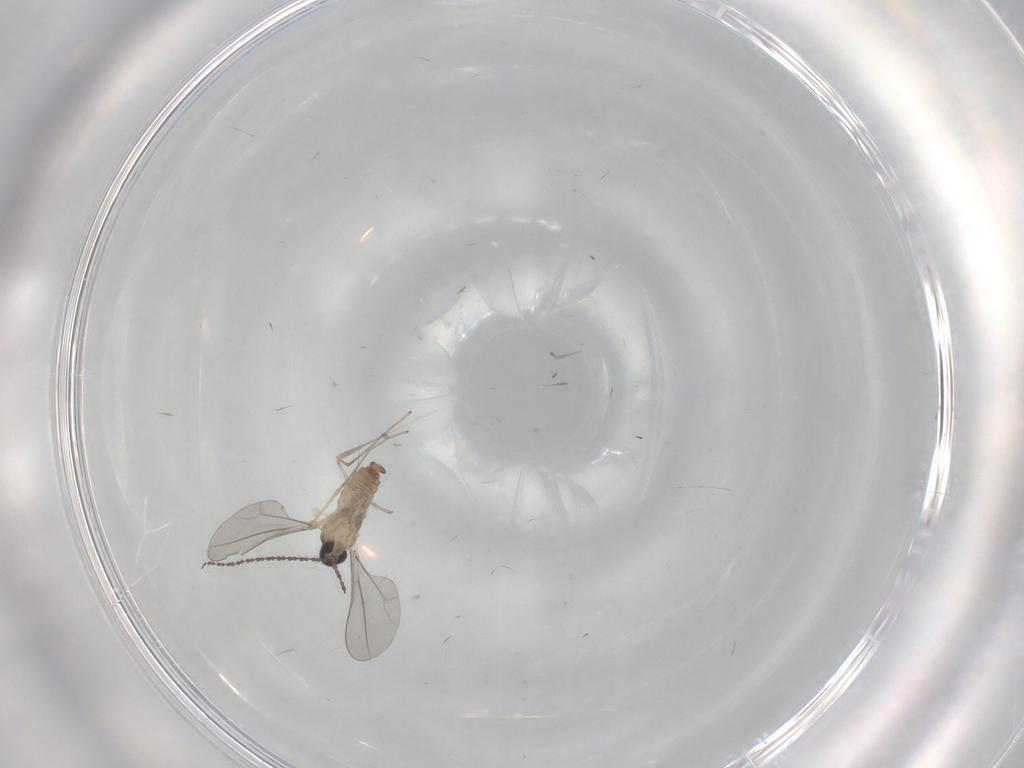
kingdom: Animalia
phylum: Arthropoda
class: Insecta
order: Diptera
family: Cecidomyiidae
